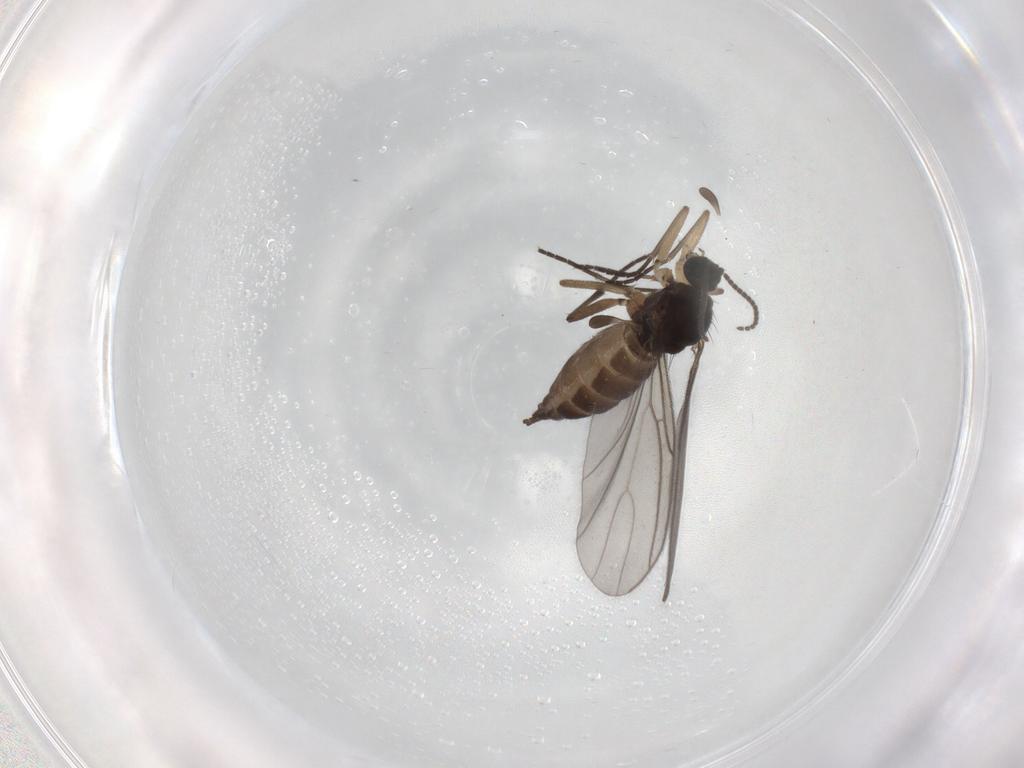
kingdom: Animalia
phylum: Arthropoda
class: Insecta
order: Diptera
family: Sciaridae
